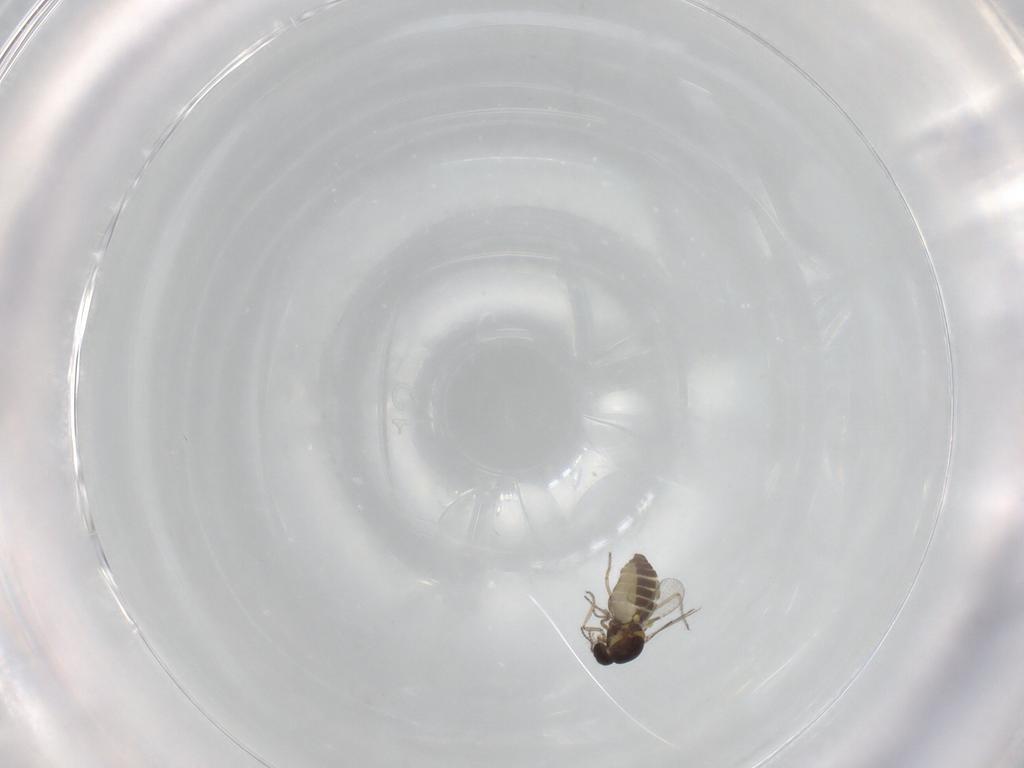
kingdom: Animalia
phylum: Arthropoda
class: Insecta
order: Diptera
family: Ceratopogonidae
